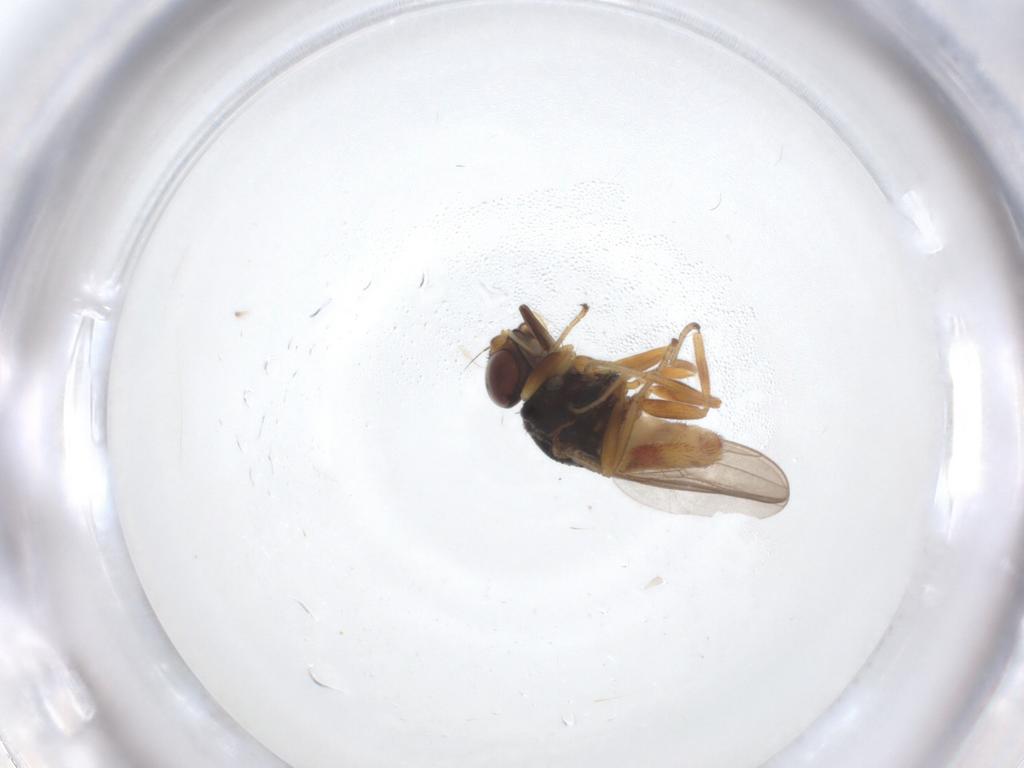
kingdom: Animalia
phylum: Arthropoda
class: Insecta
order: Diptera
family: Chloropidae
